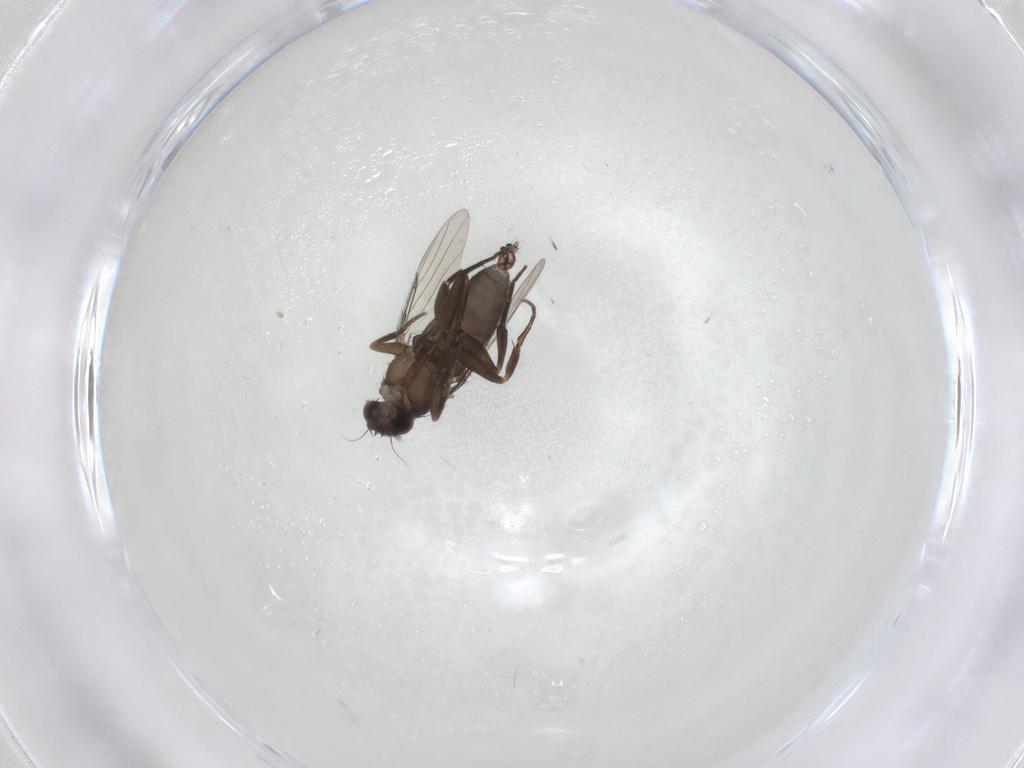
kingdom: Animalia
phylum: Arthropoda
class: Insecta
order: Diptera
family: Phoridae
